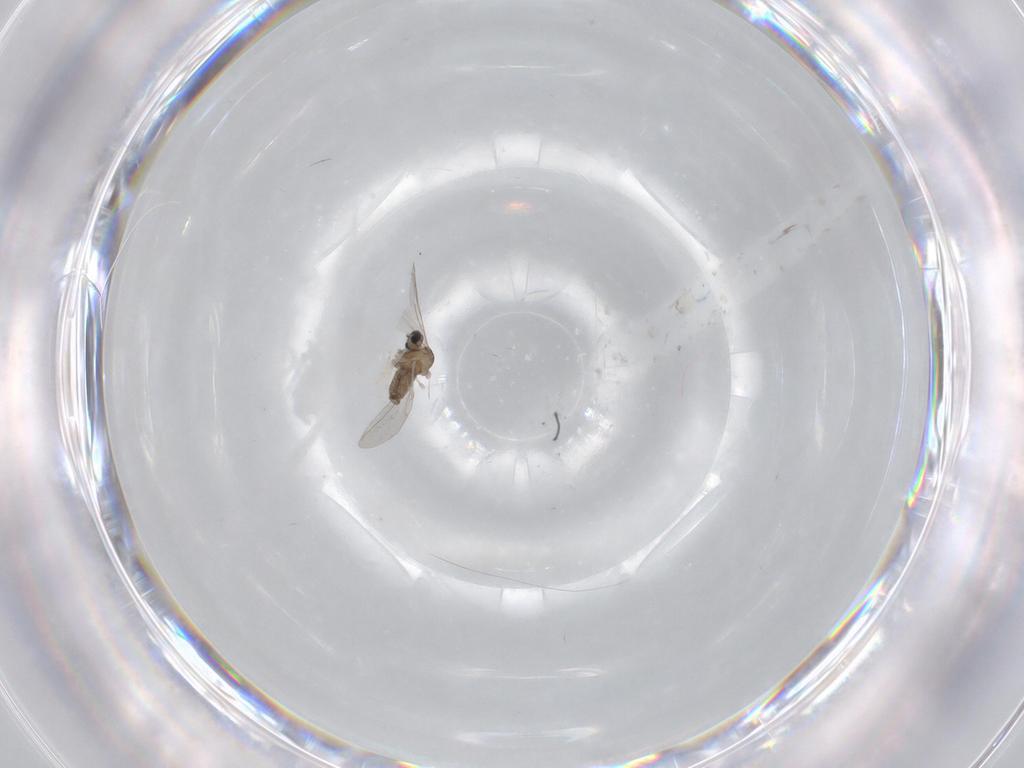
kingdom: Animalia
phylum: Arthropoda
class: Insecta
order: Diptera
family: Cecidomyiidae
